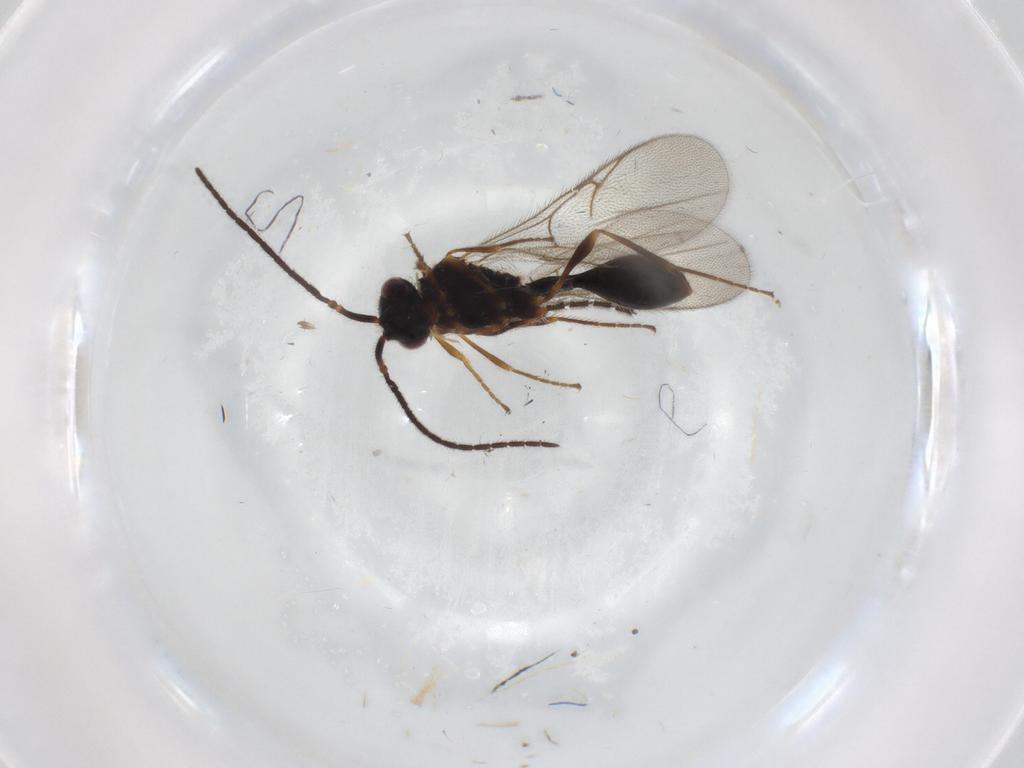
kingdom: Animalia
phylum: Arthropoda
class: Insecta
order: Hymenoptera
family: Diapriidae
